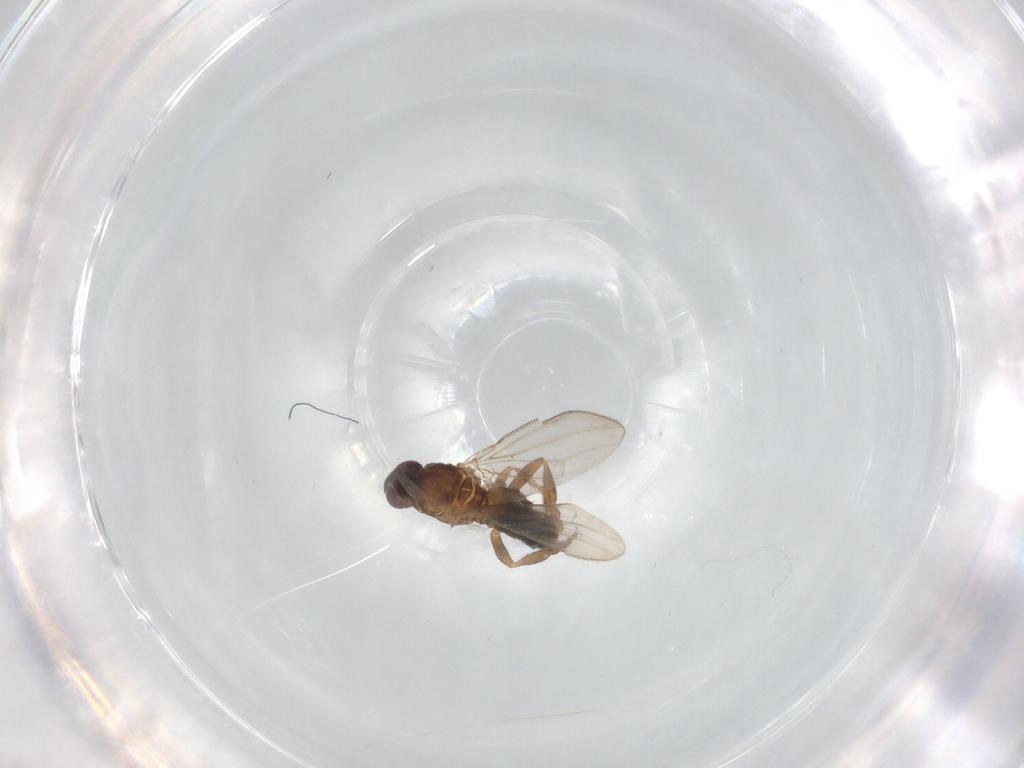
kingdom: Animalia
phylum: Arthropoda
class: Insecta
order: Diptera
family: Sphaeroceridae
